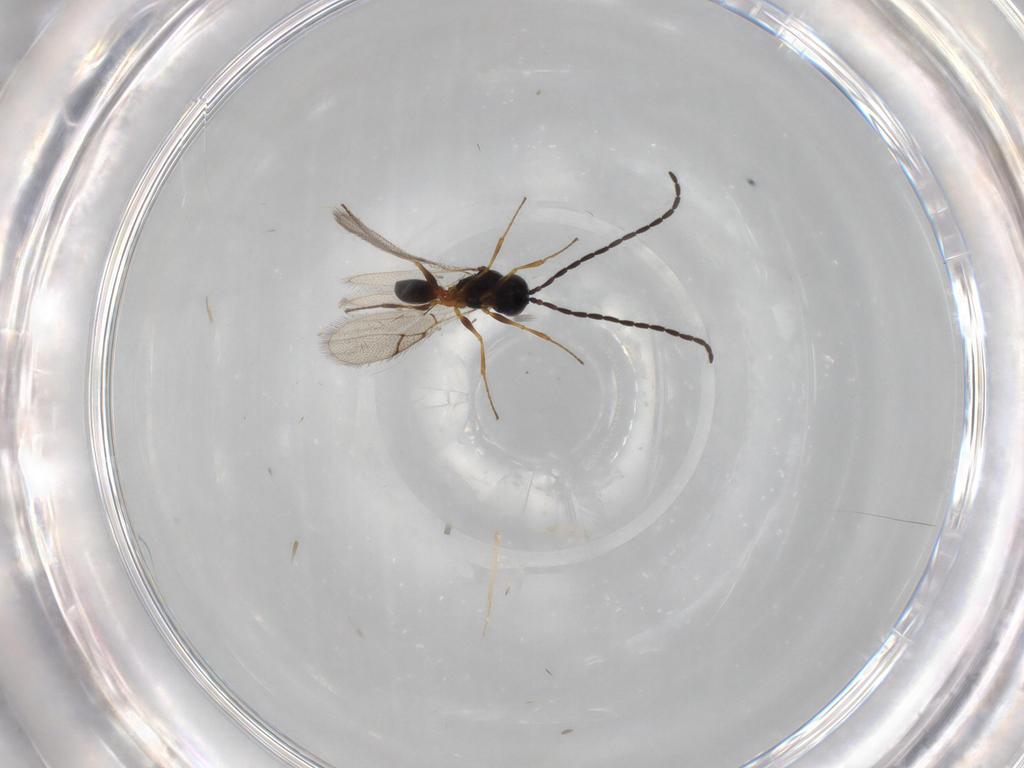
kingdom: Animalia
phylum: Arthropoda
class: Insecta
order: Hymenoptera
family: Figitidae
